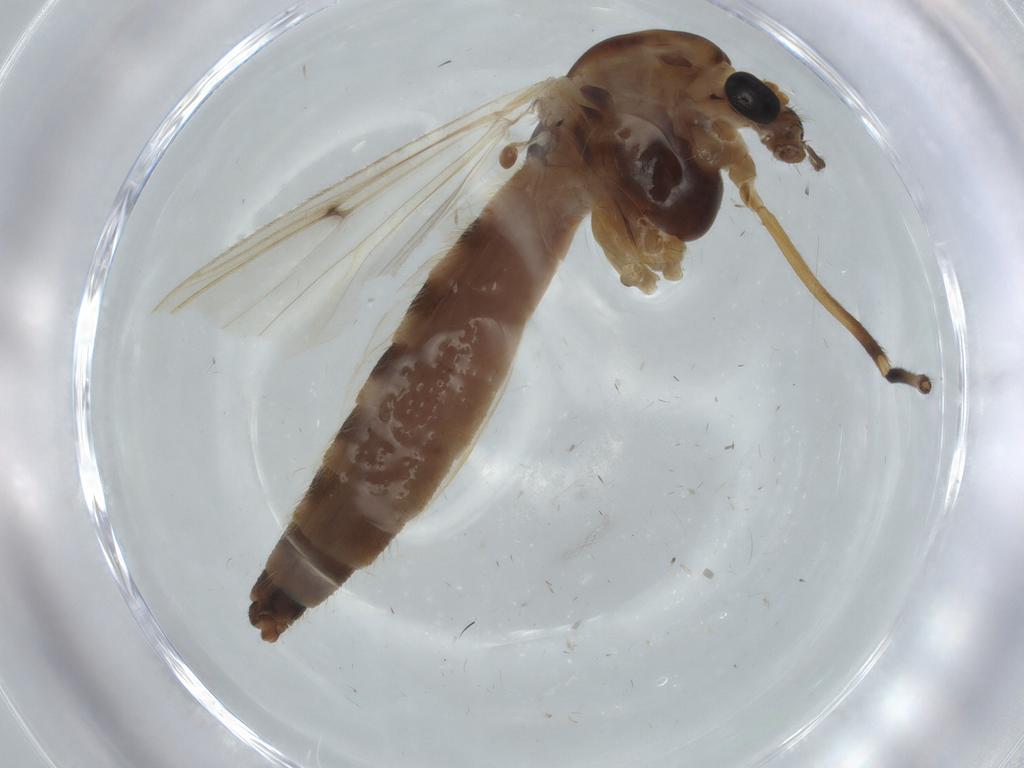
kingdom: Animalia
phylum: Arthropoda
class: Insecta
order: Diptera
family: Chironomidae
